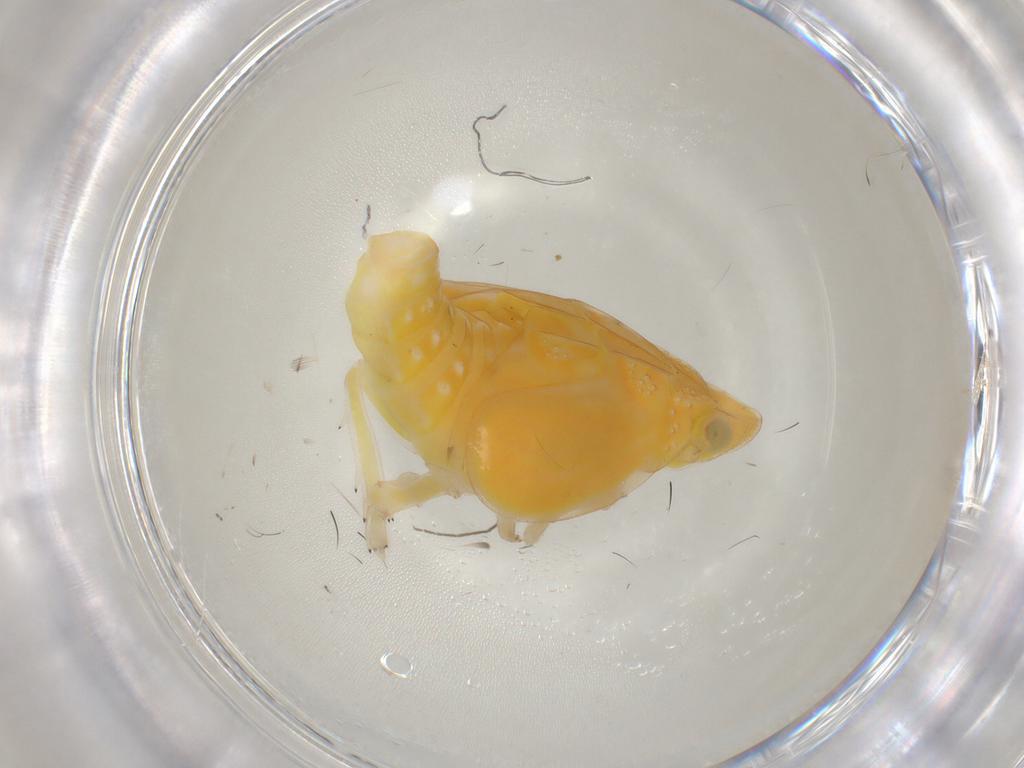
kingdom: Animalia
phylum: Arthropoda
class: Insecta
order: Hemiptera
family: Tropiduchidae
